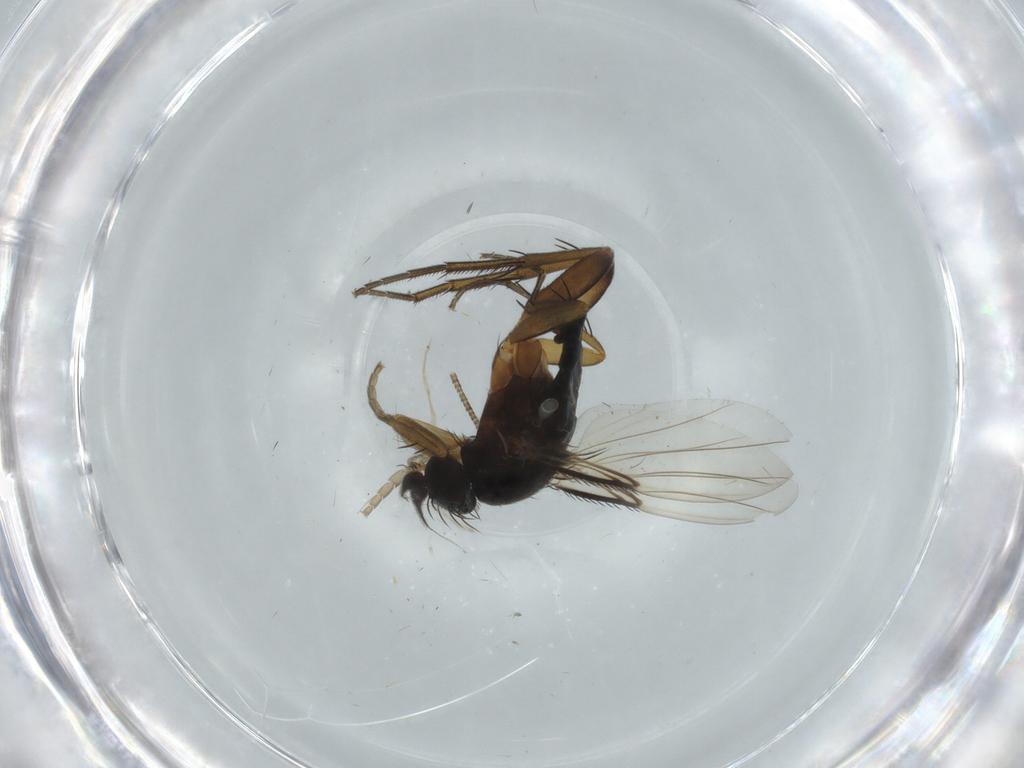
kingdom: Animalia
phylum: Arthropoda
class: Insecta
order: Diptera
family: Phoridae
